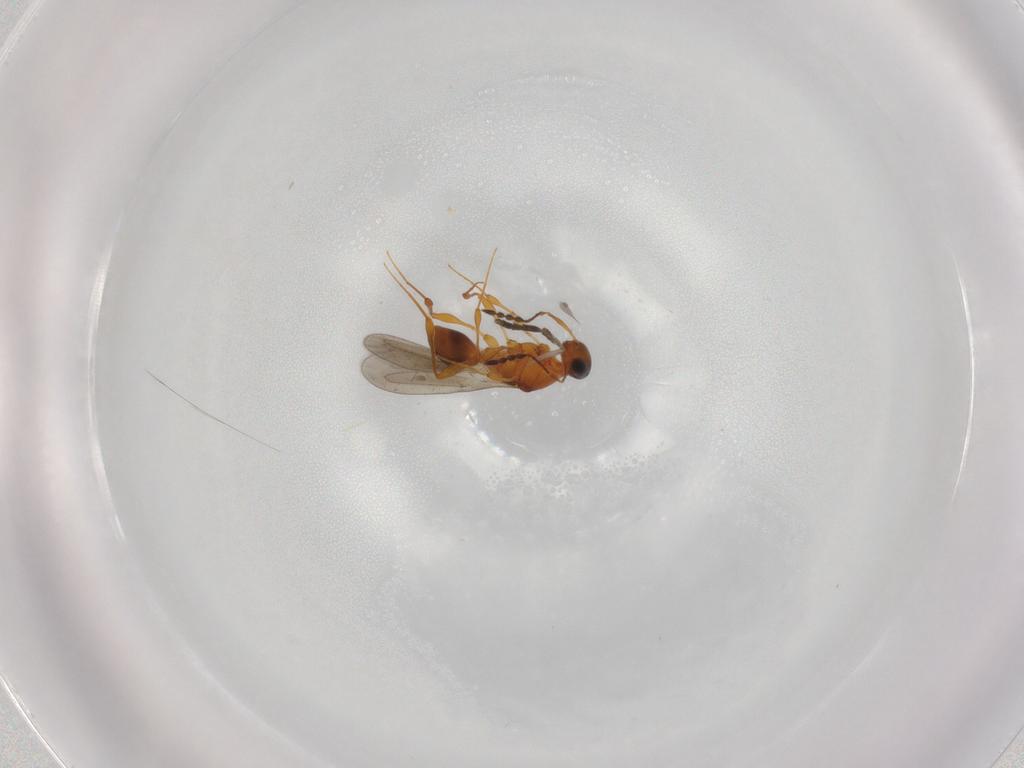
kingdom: Animalia
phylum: Arthropoda
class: Insecta
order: Hymenoptera
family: Platygastridae
